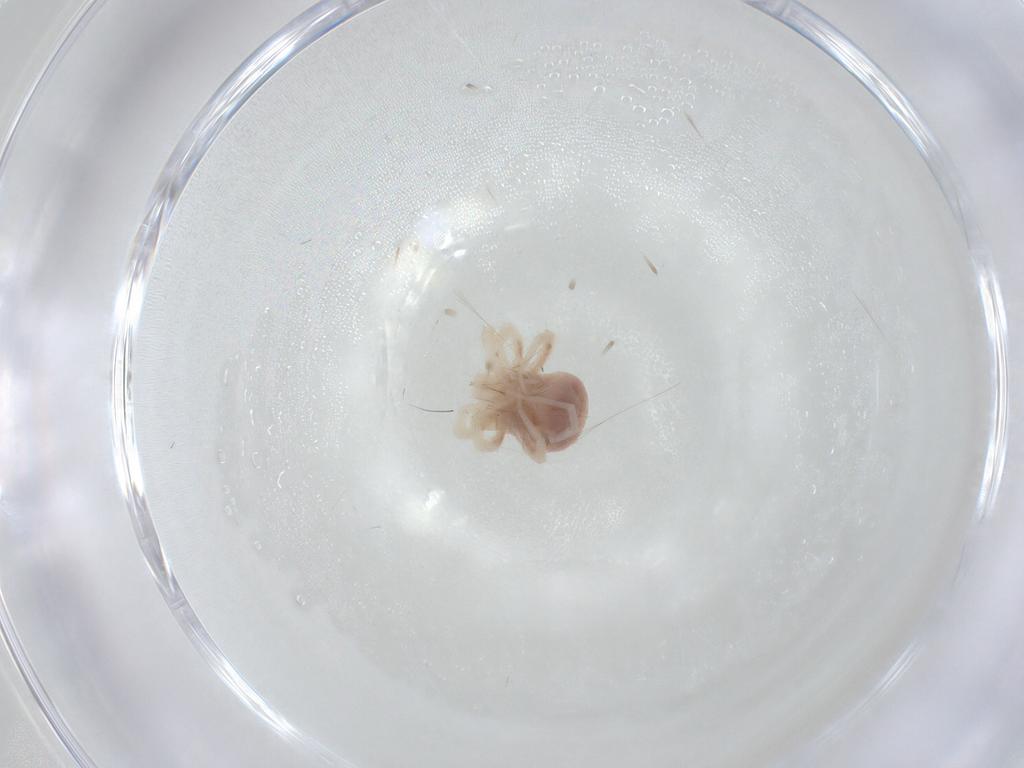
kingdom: Animalia
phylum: Arthropoda
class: Arachnida
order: Trombidiformes
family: Anystidae
